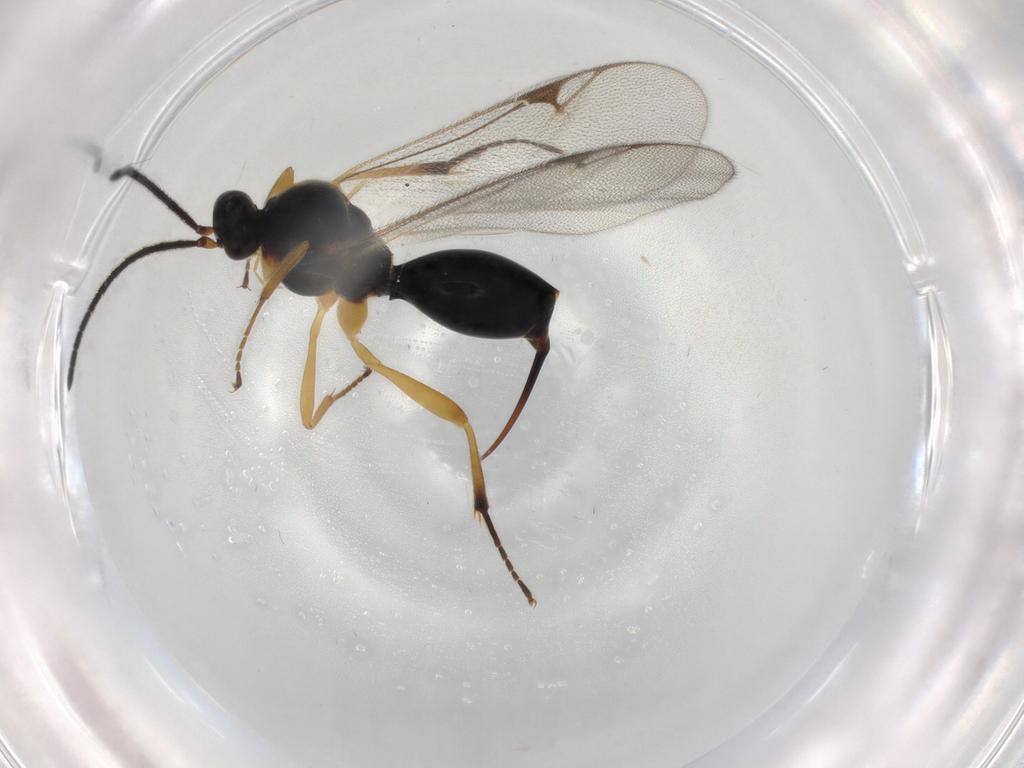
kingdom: Animalia
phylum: Arthropoda
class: Insecta
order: Hymenoptera
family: Proctotrupidae
